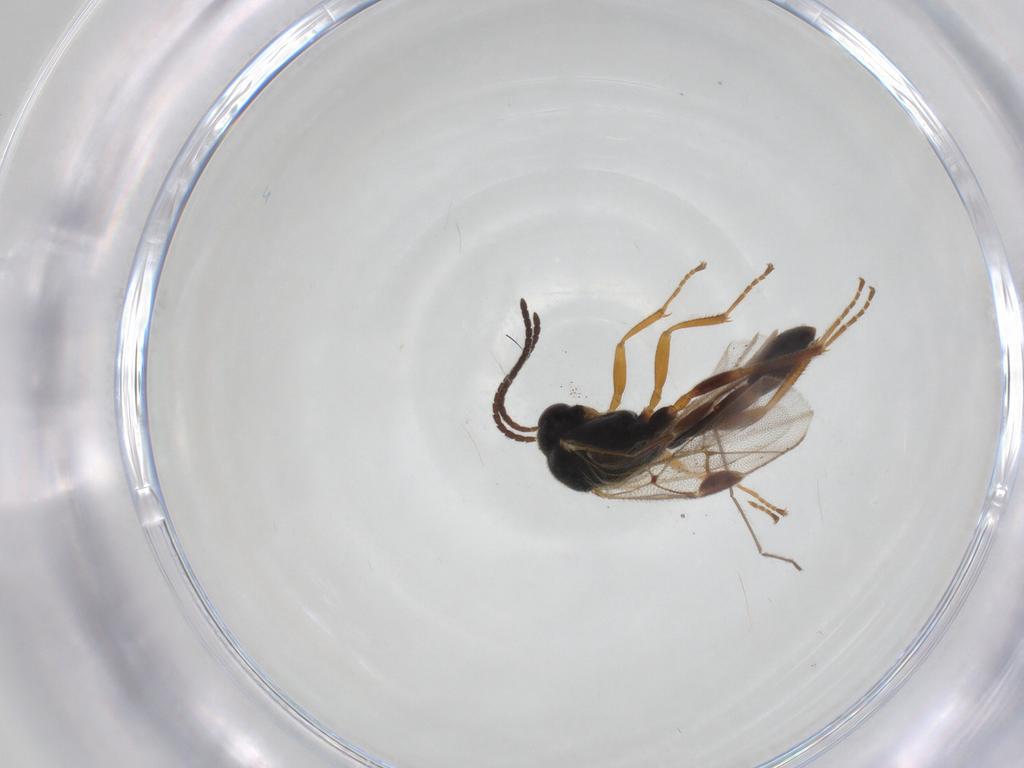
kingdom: Animalia
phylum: Arthropoda
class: Insecta
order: Hymenoptera
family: Ichneumonidae
